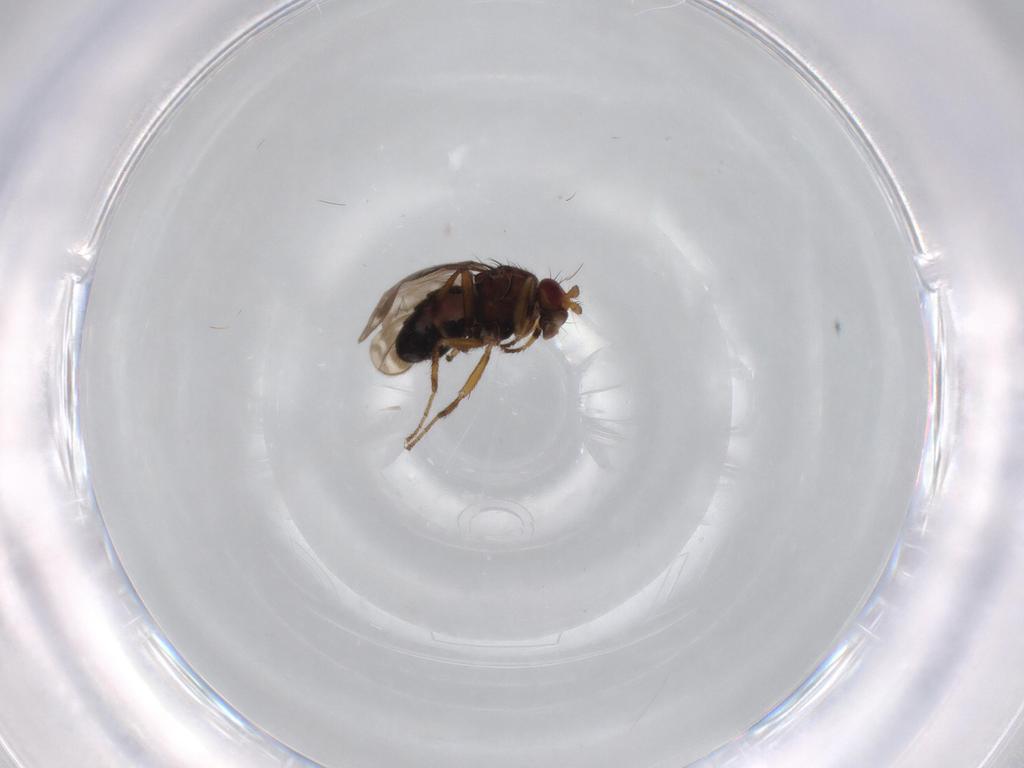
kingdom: Animalia
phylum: Arthropoda
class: Insecta
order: Diptera
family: Sphaeroceridae
